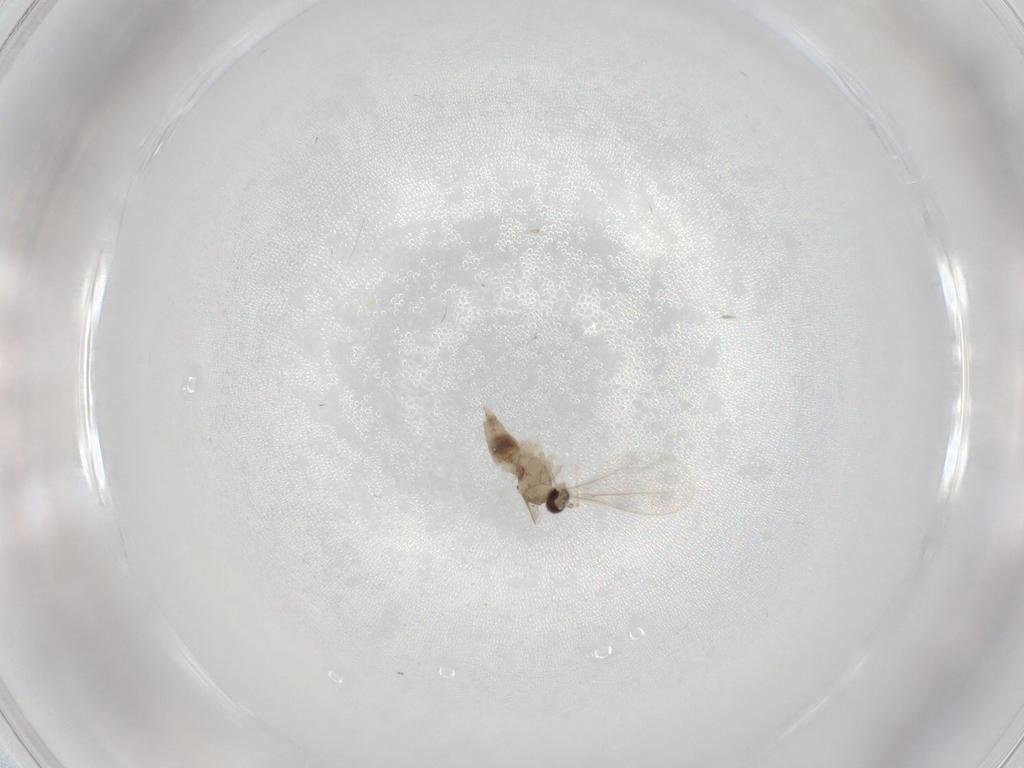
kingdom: Animalia
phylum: Arthropoda
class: Insecta
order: Diptera
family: Cecidomyiidae
